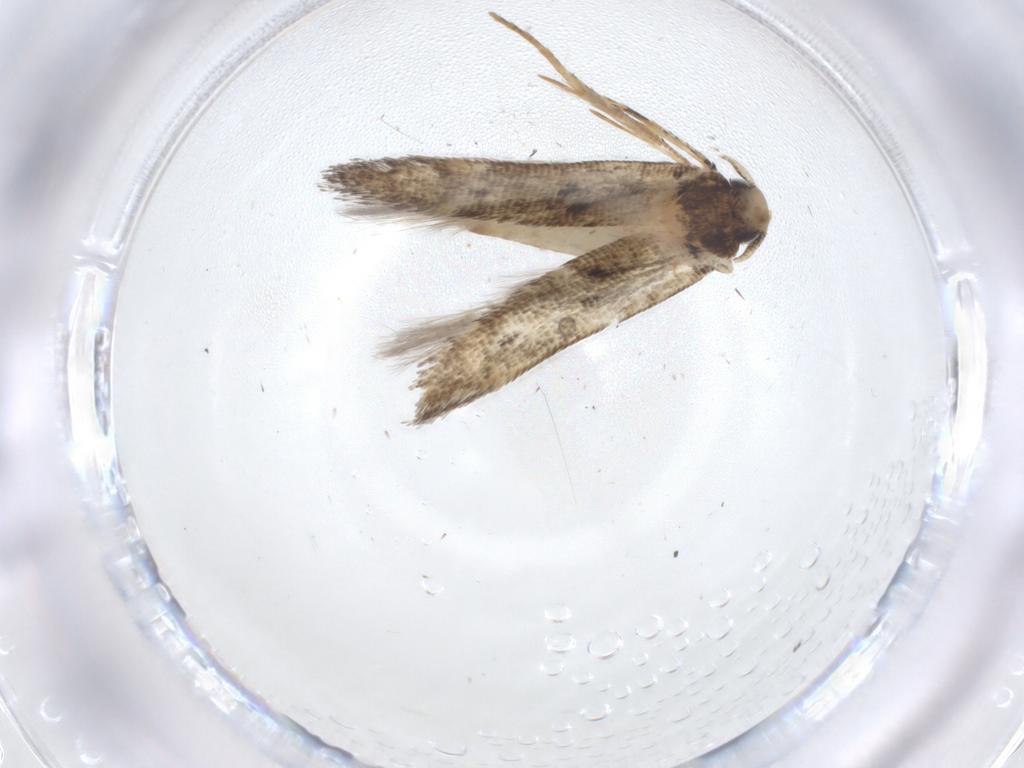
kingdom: Animalia
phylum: Arthropoda
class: Insecta
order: Lepidoptera
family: Gelechiidae
